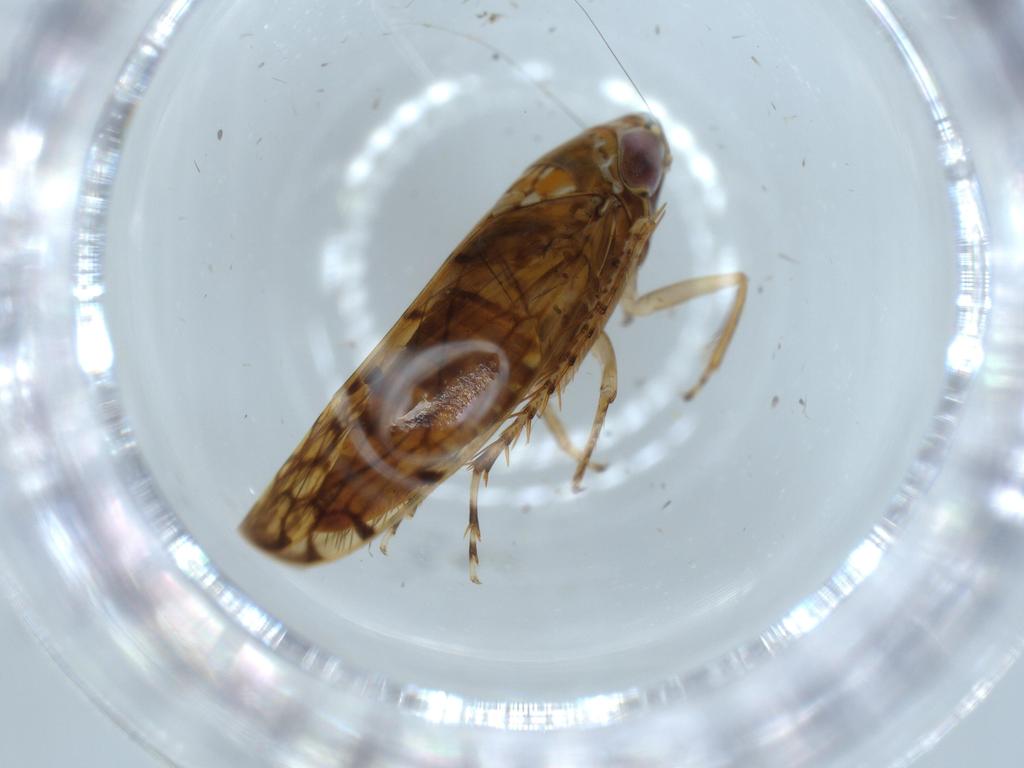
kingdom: Animalia
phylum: Arthropoda
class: Insecta
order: Hemiptera
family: Cicadellidae
